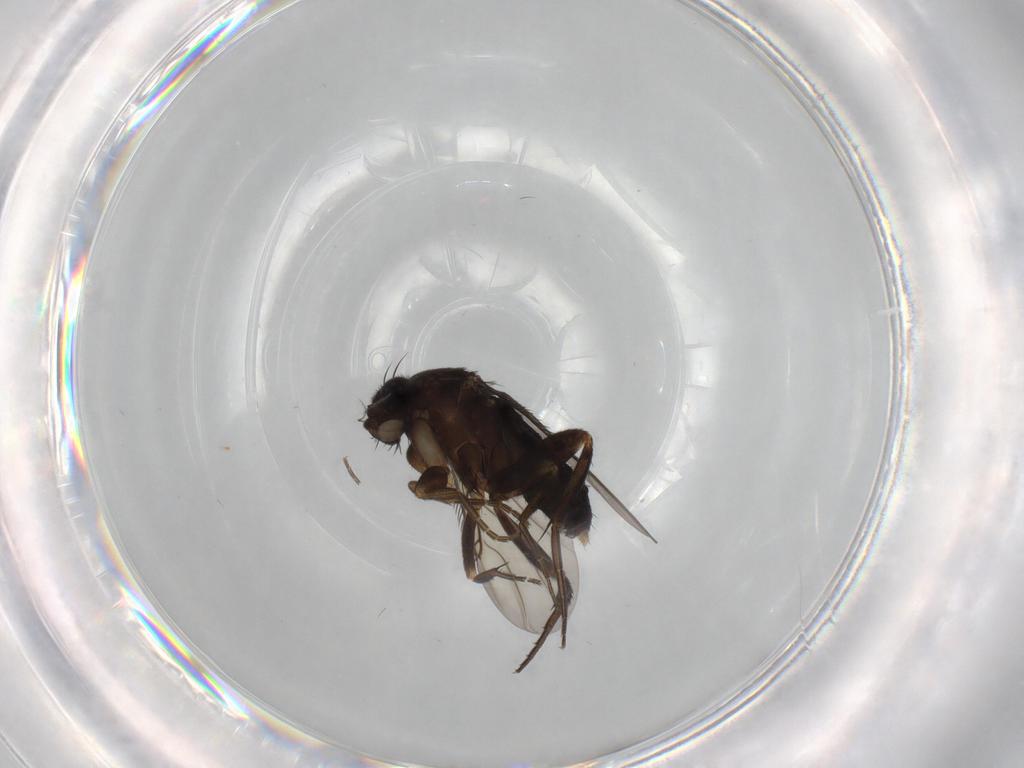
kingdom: Animalia
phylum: Arthropoda
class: Insecta
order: Diptera
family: Phoridae
